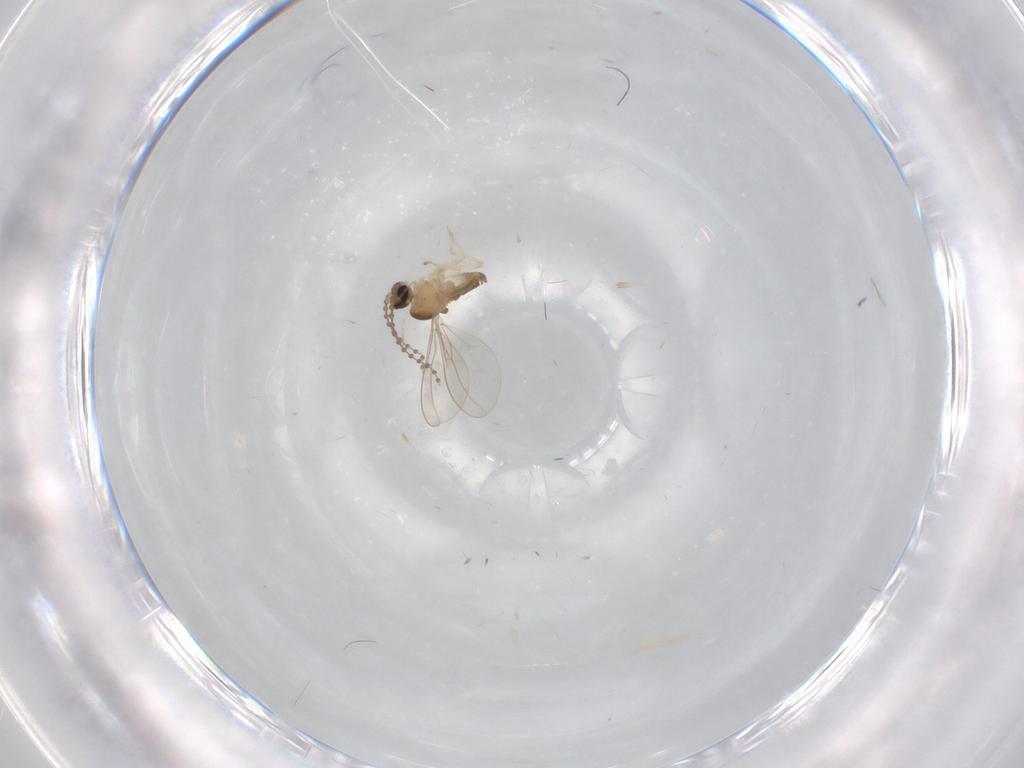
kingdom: Animalia
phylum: Arthropoda
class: Insecta
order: Diptera
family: Cecidomyiidae
